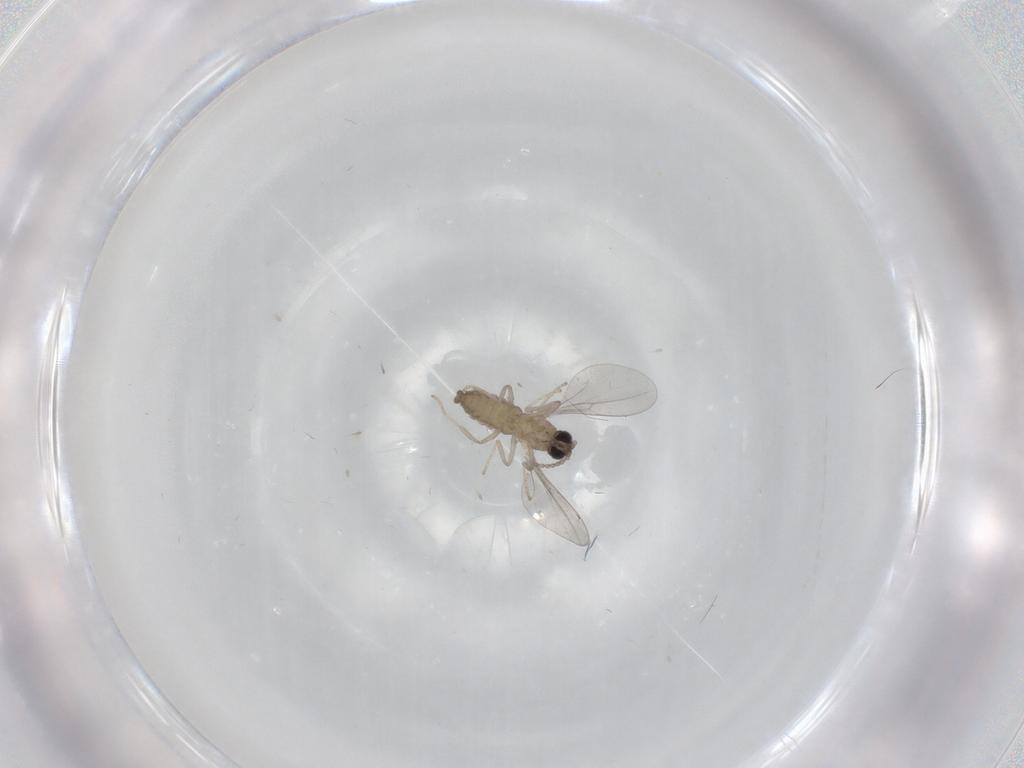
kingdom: Animalia
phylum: Arthropoda
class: Insecta
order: Diptera
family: Cecidomyiidae
